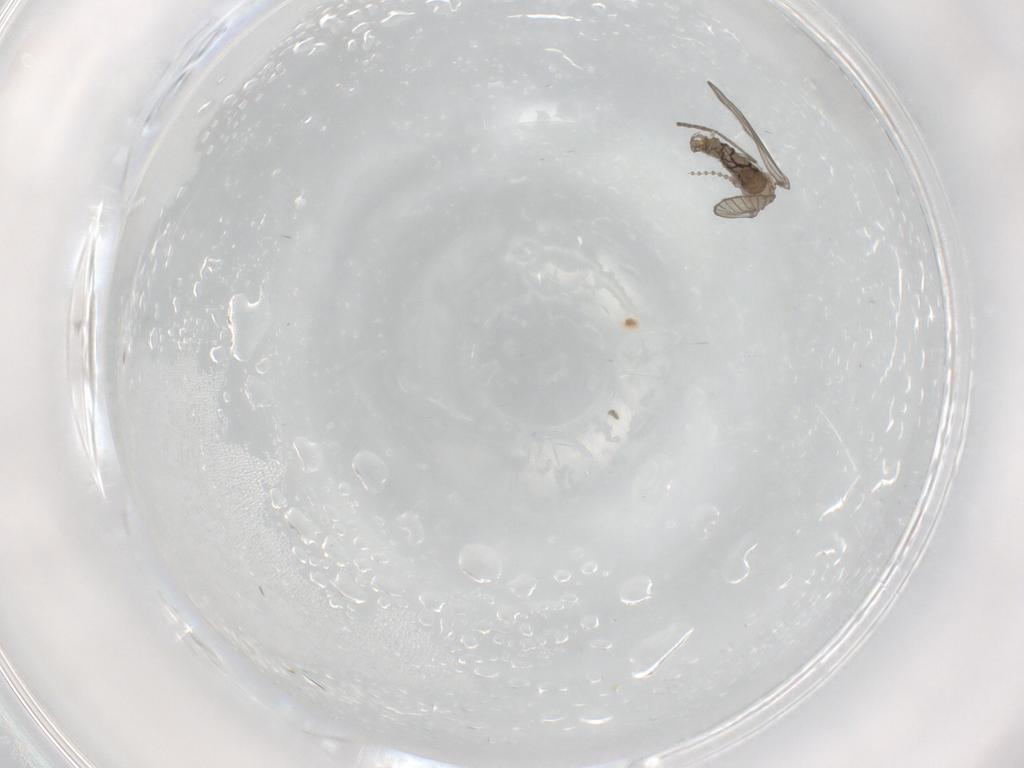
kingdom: Animalia
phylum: Arthropoda
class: Insecta
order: Diptera
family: Psychodidae
